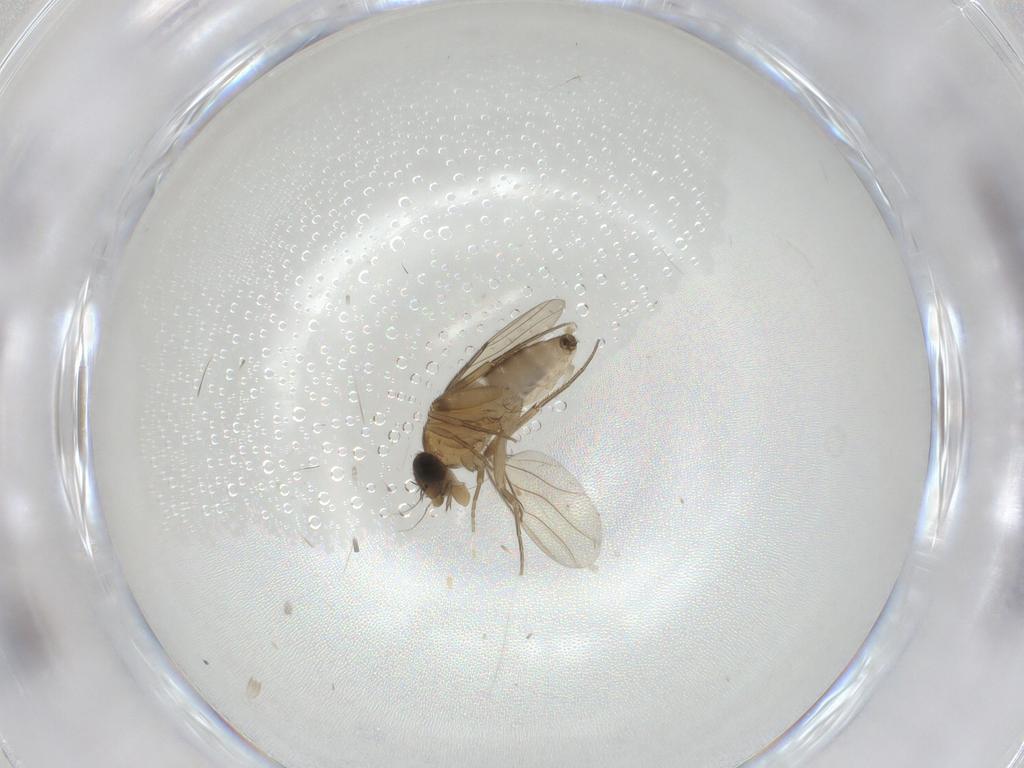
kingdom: Animalia
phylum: Arthropoda
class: Insecta
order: Diptera
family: Phoridae
